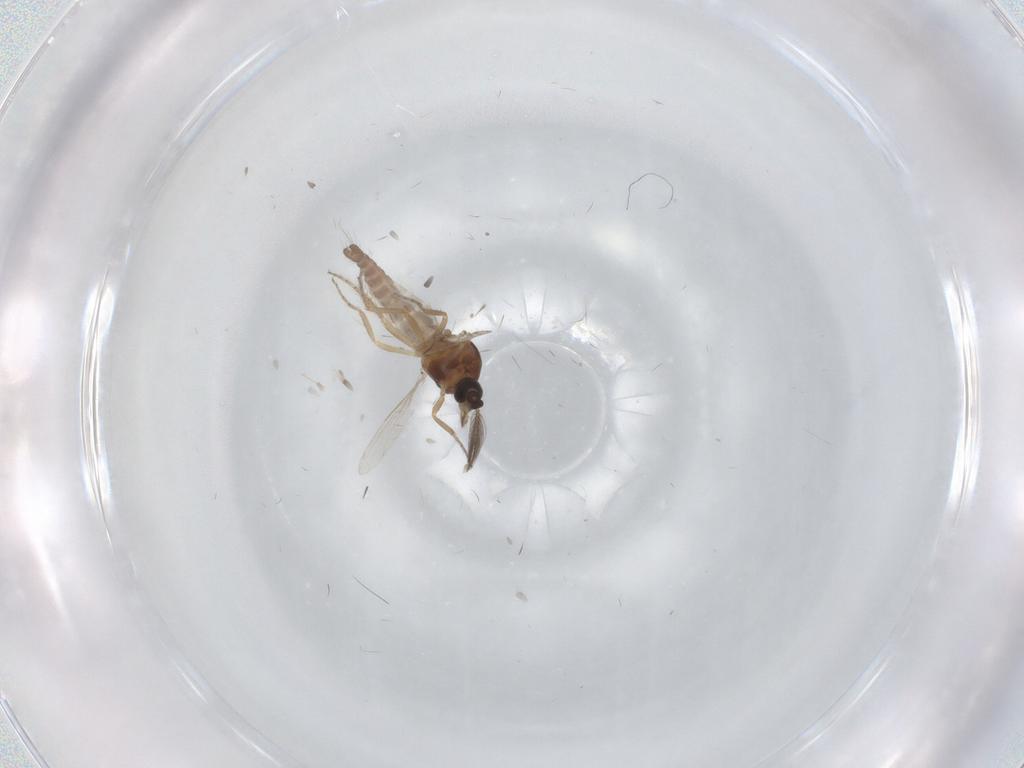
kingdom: Animalia
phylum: Arthropoda
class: Insecta
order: Diptera
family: Ceratopogonidae
